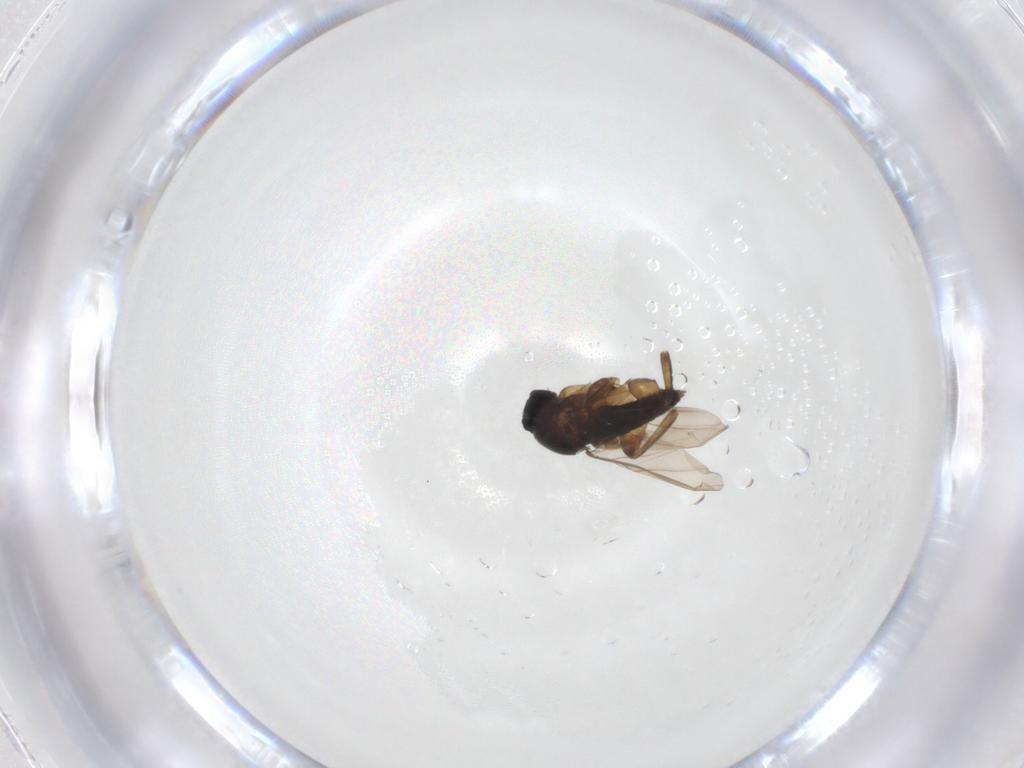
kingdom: Animalia
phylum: Arthropoda
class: Insecta
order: Diptera
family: Phoridae
